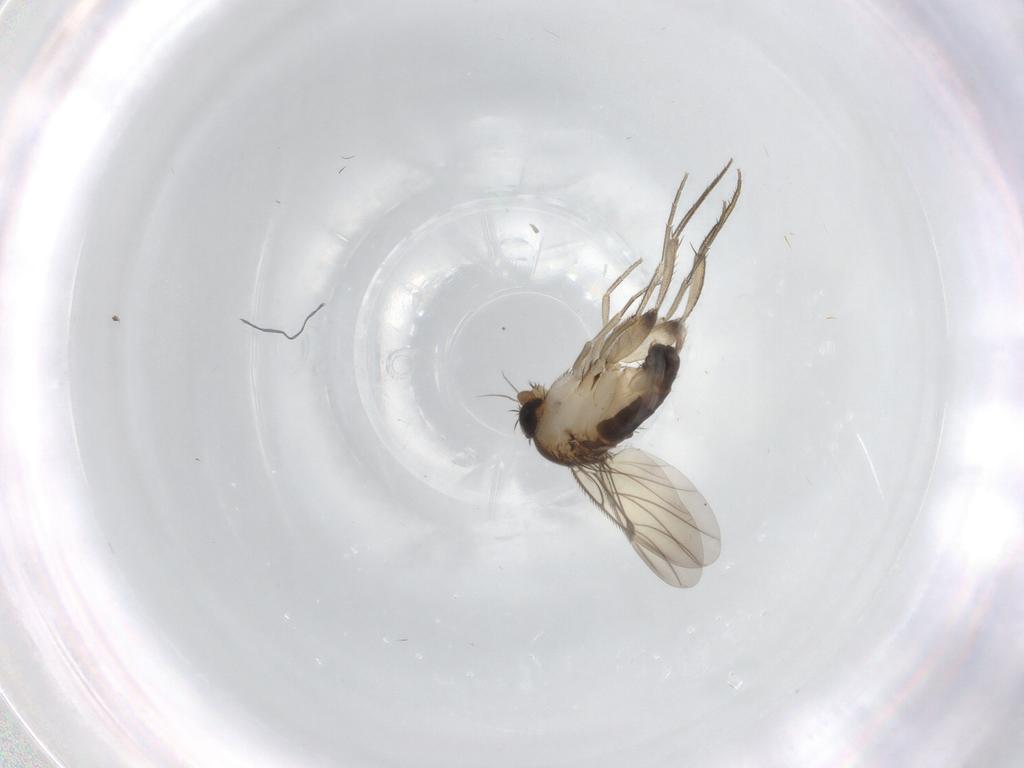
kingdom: Animalia
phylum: Arthropoda
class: Insecta
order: Diptera
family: Phoridae
